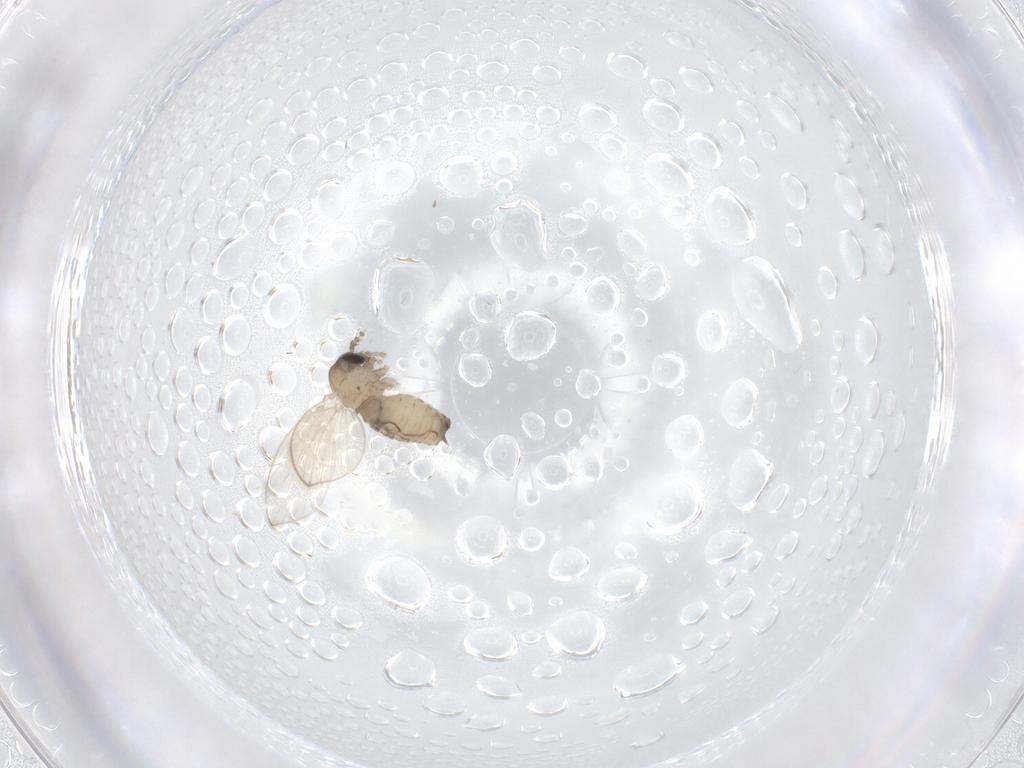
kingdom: Animalia
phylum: Arthropoda
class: Insecta
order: Diptera
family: Psychodidae
